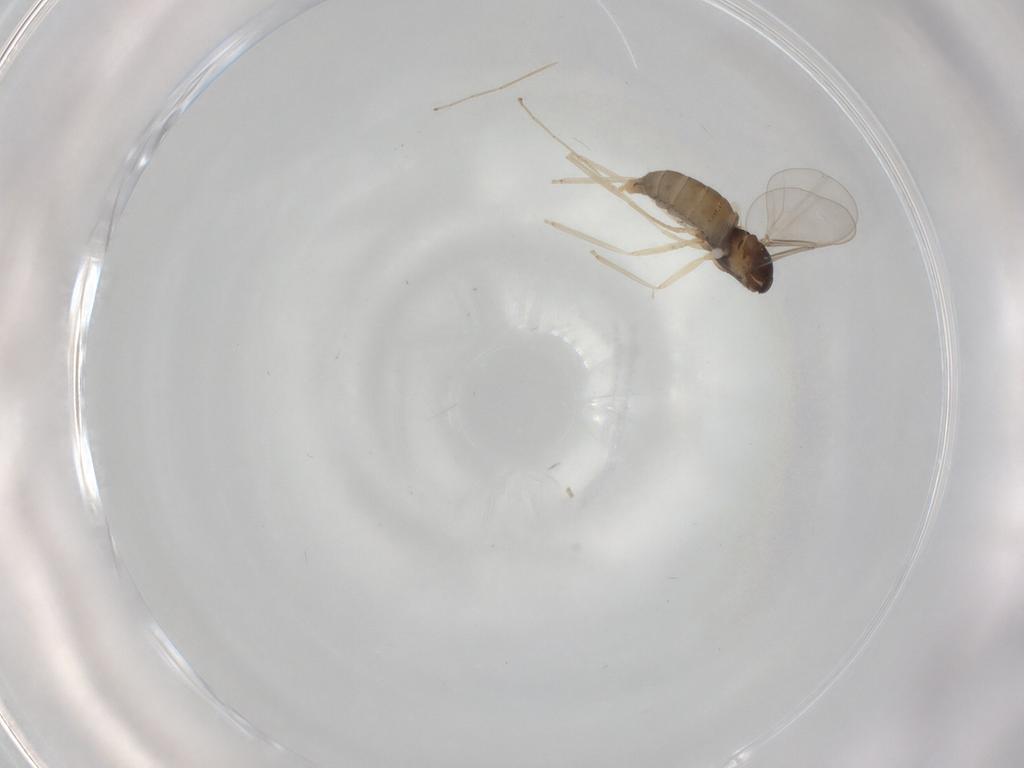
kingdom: Animalia
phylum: Arthropoda
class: Insecta
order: Diptera
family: Cecidomyiidae
